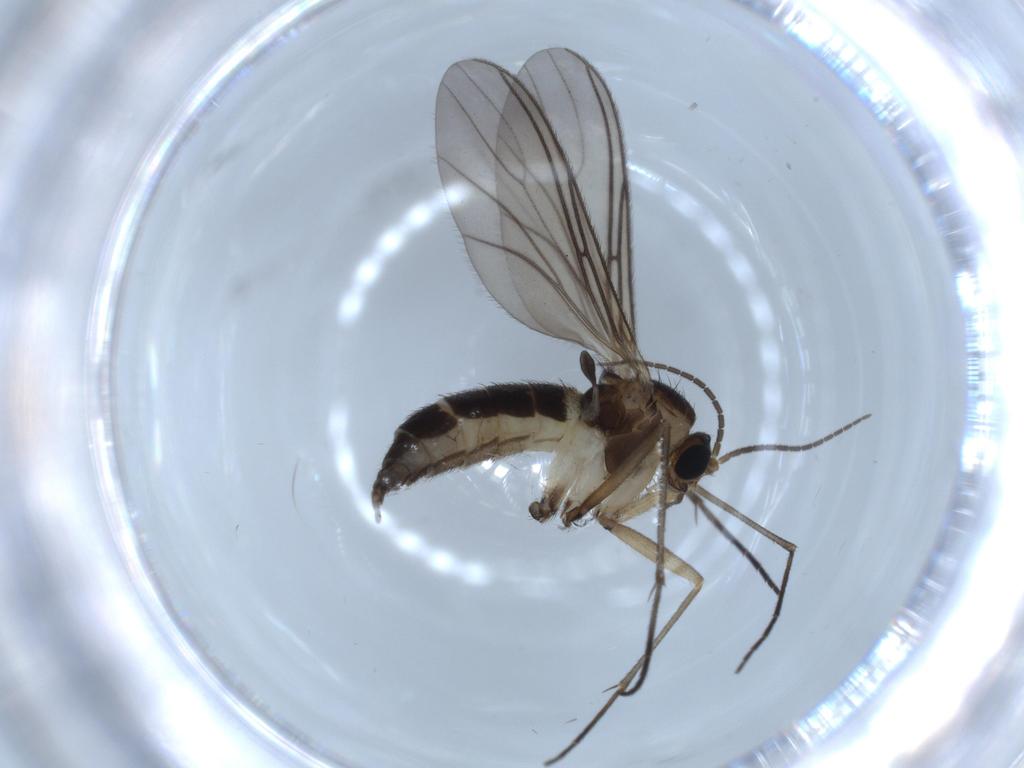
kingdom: Animalia
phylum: Arthropoda
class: Insecta
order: Diptera
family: Sciaridae
